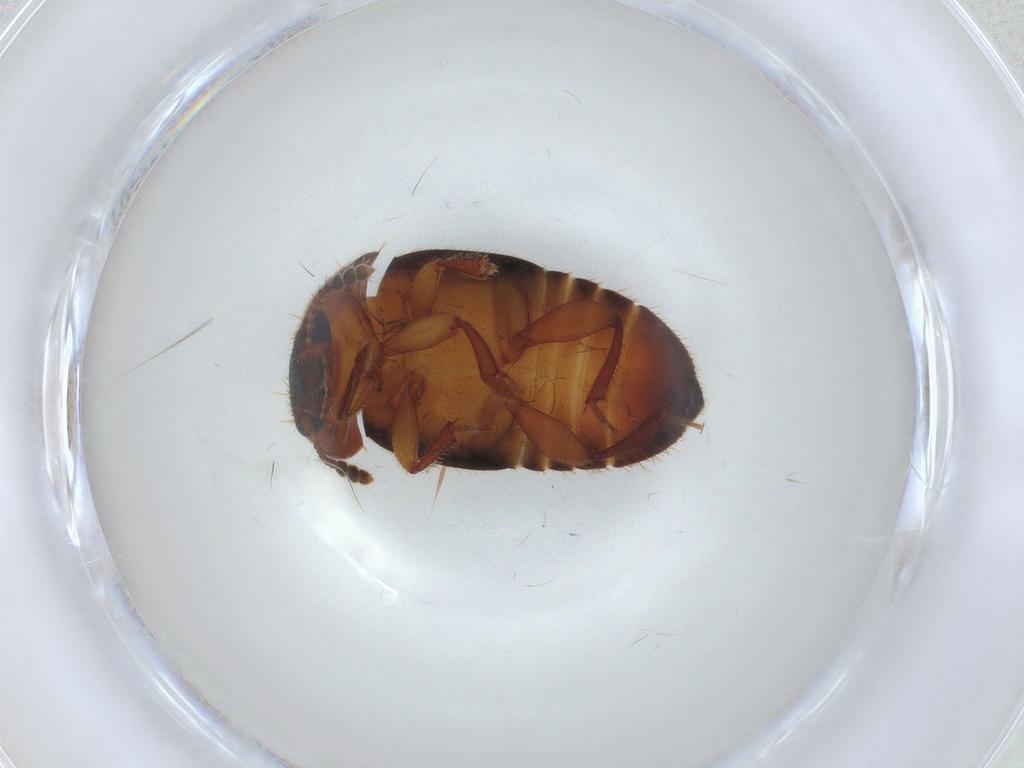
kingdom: Animalia
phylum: Arthropoda
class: Insecta
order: Coleoptera
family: Nitidulidae
